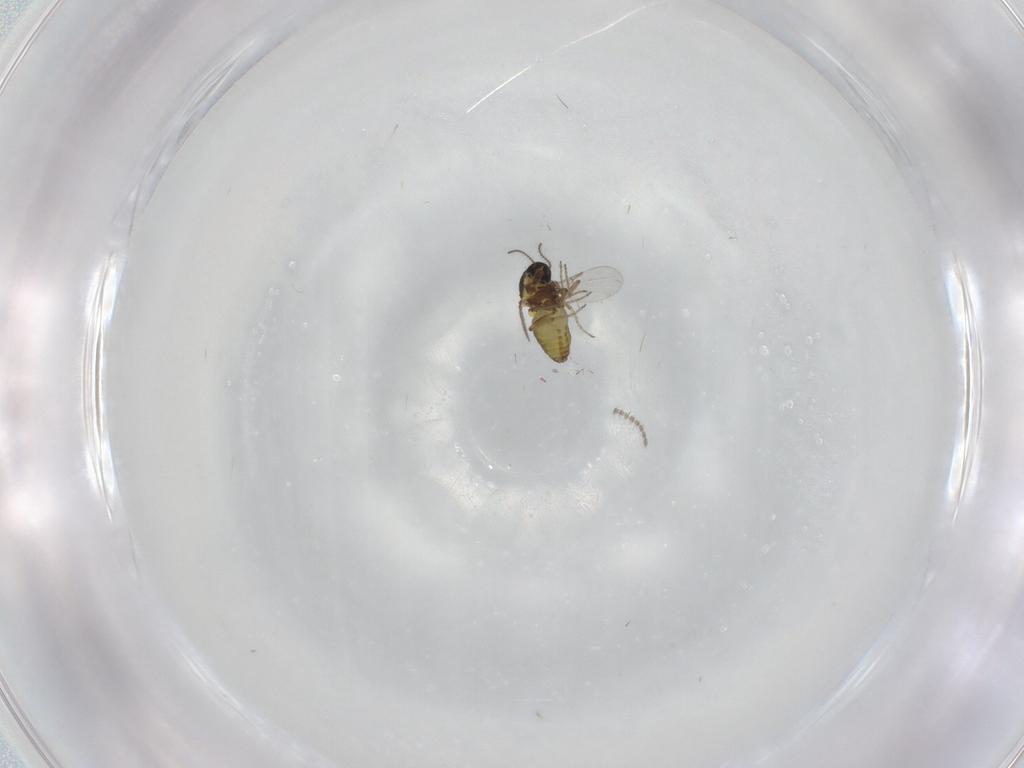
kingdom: Animalia
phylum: Arthropoda
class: Insecta
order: Diptera
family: Ceratopogonidae
